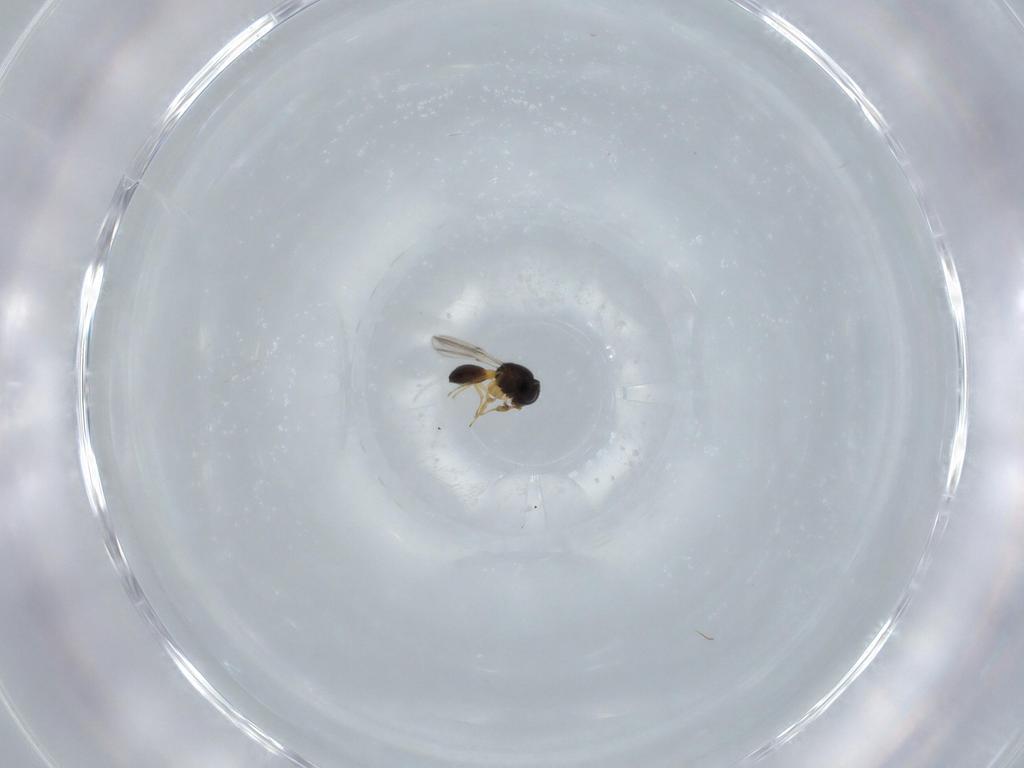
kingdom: Animalia
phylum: Arthropoda
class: Insecta
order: Hymenoptera
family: Scelionidae
